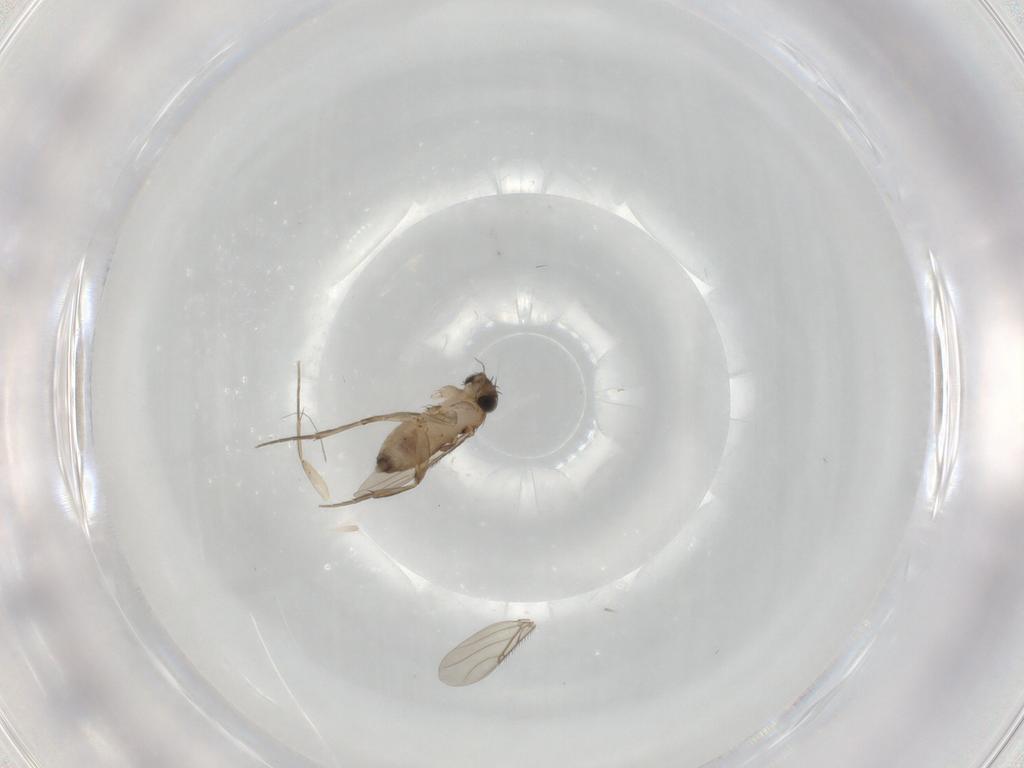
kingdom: Animalia
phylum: Arthropoda
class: Insecta
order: Diptera
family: Phoridae
